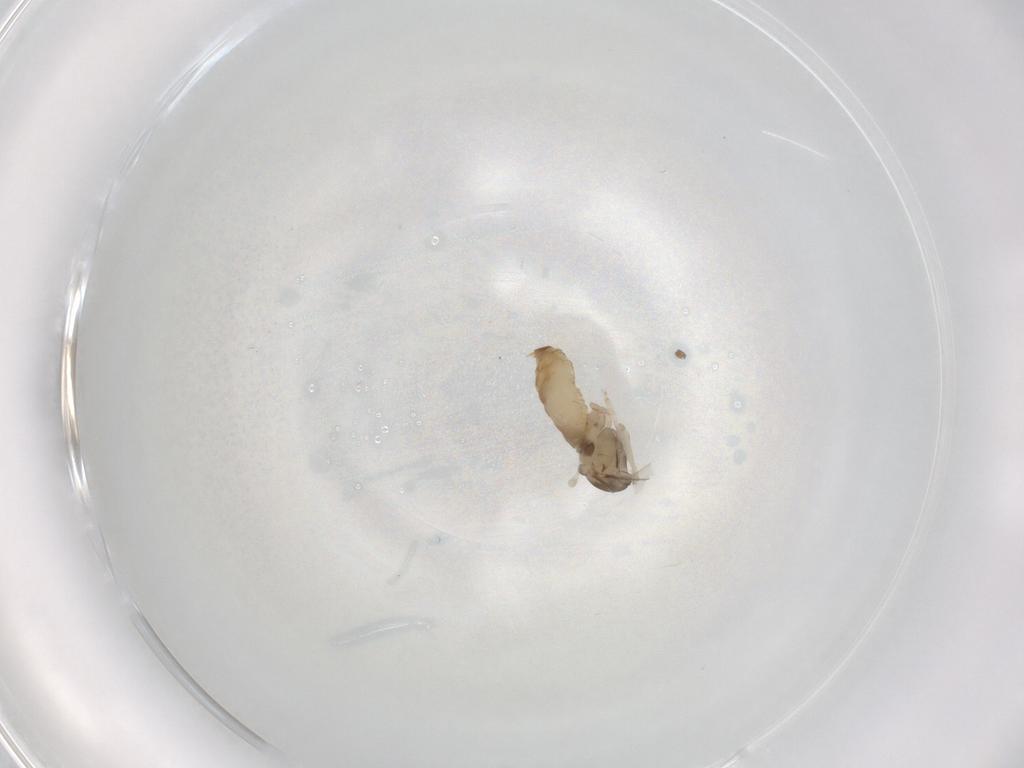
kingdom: Animalia
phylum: Arthropoda
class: Insecta
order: Diptera
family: Cecidomyiidae
